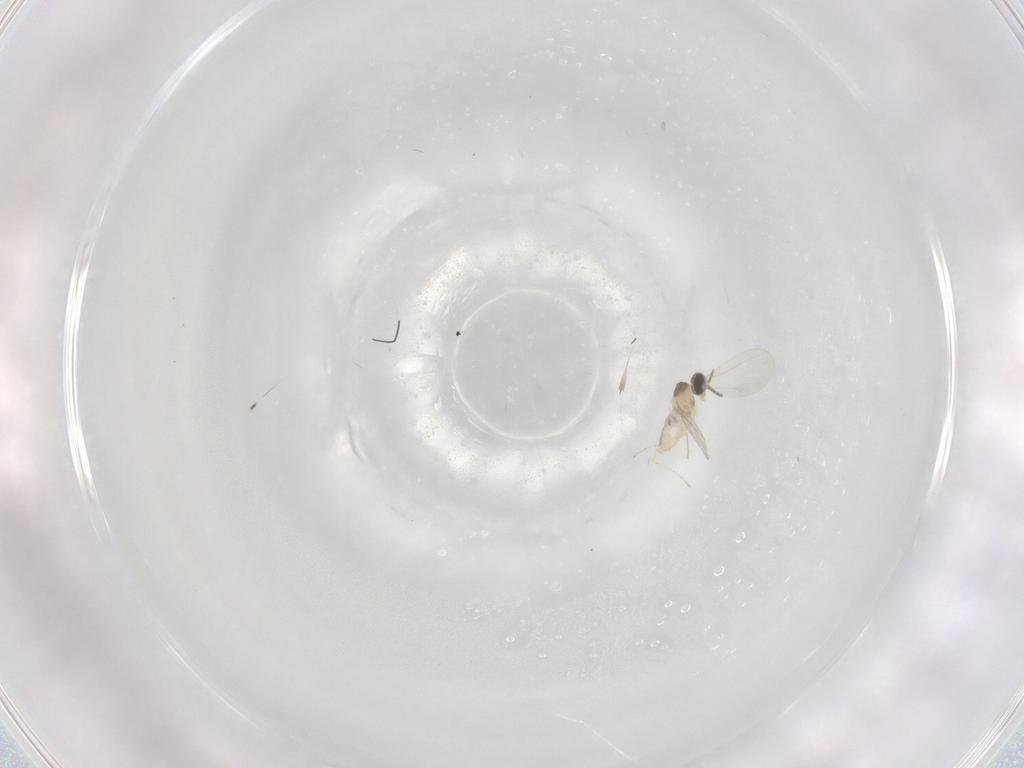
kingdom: Animalia
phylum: Arthropoda
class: Insecta
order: Diptera
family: Cecidomyiidae
